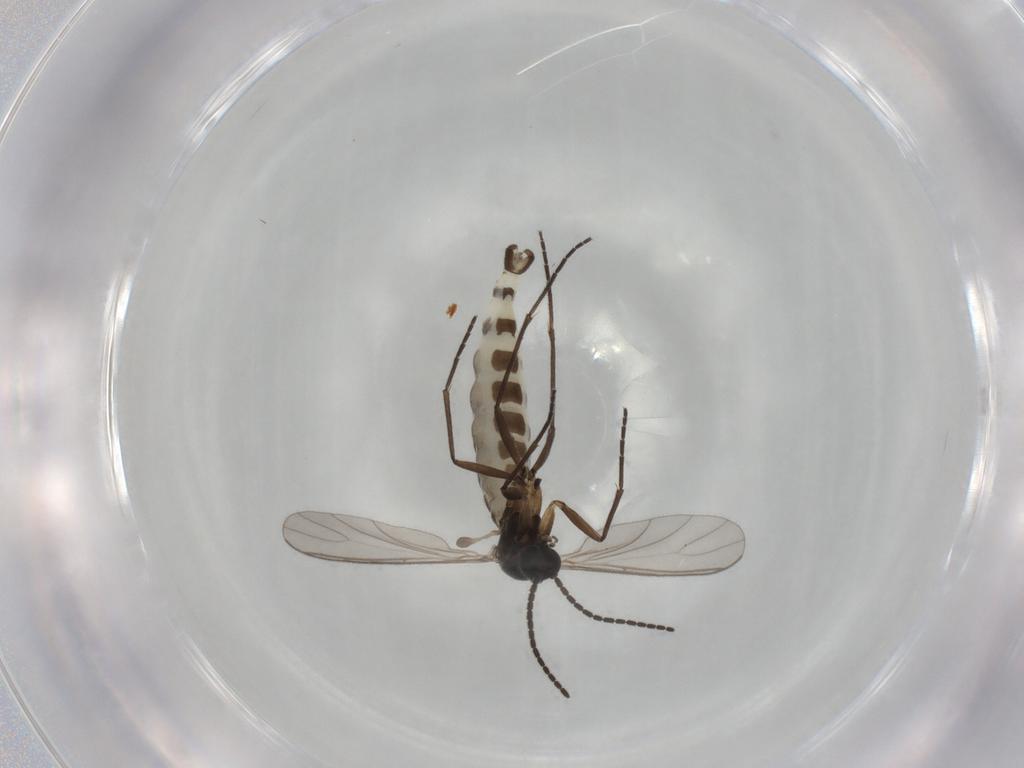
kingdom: Animalia
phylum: Arthropoda
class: Insecta
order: Diptera
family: Sciaridae
